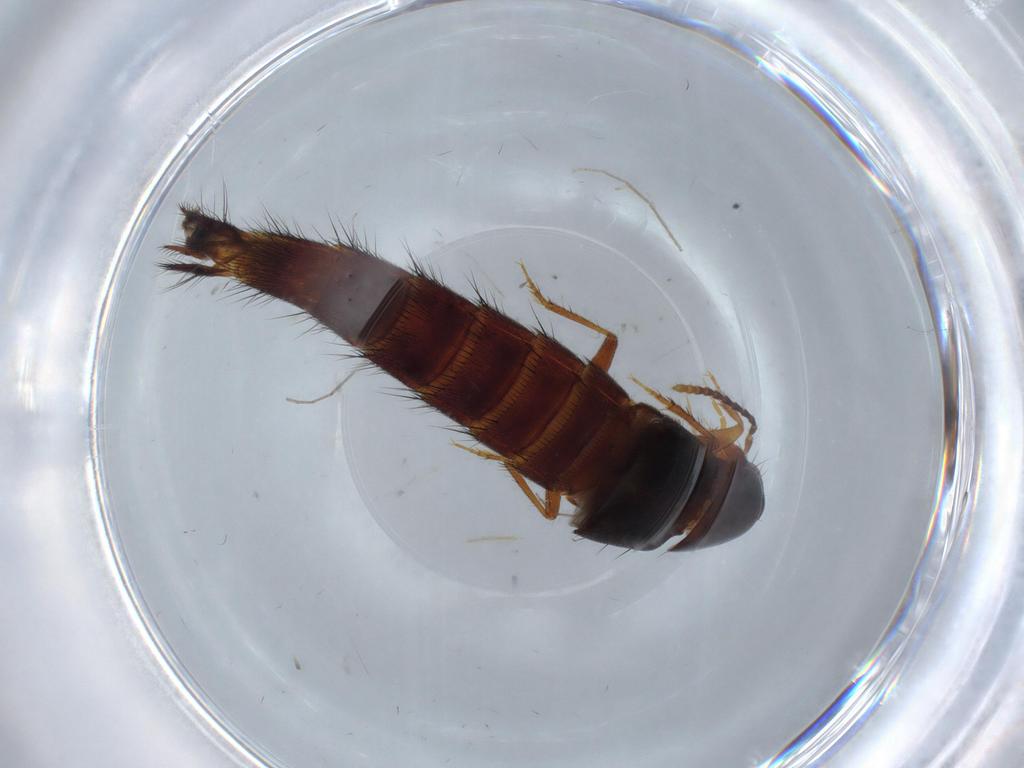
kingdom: Animalia
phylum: Arthropoda
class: Insecta
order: Coleoptera
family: Staphylinidae
